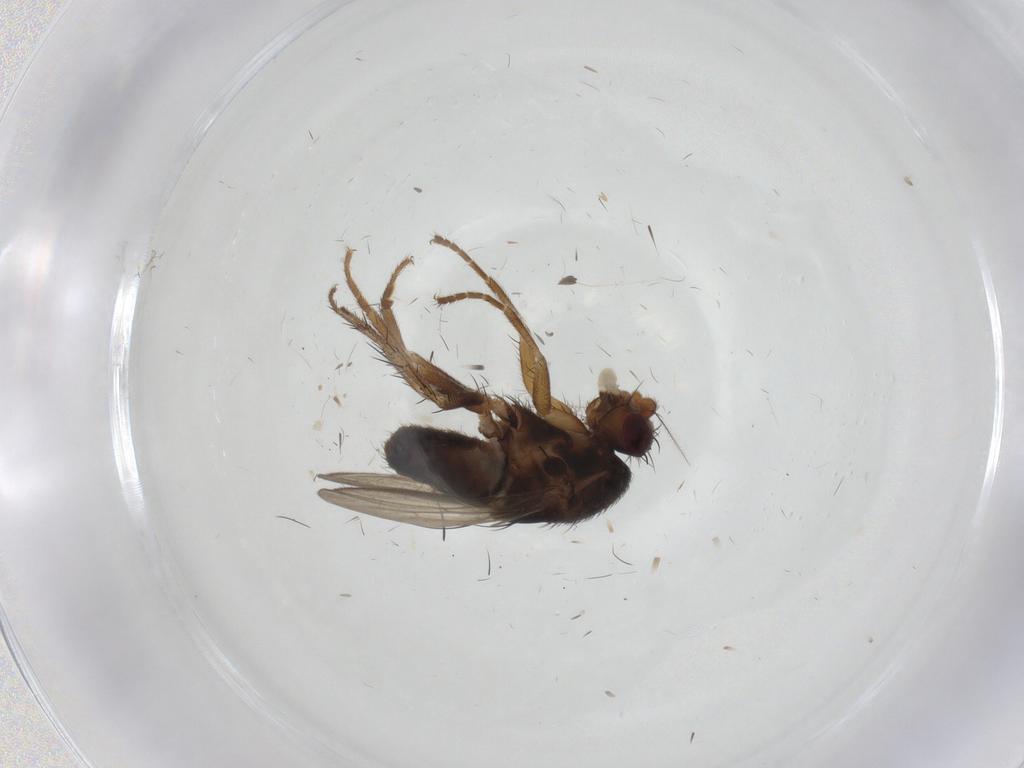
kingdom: Animalia
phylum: Arthropoda
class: Insecta
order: Diptera
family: Sphaeroceridae
